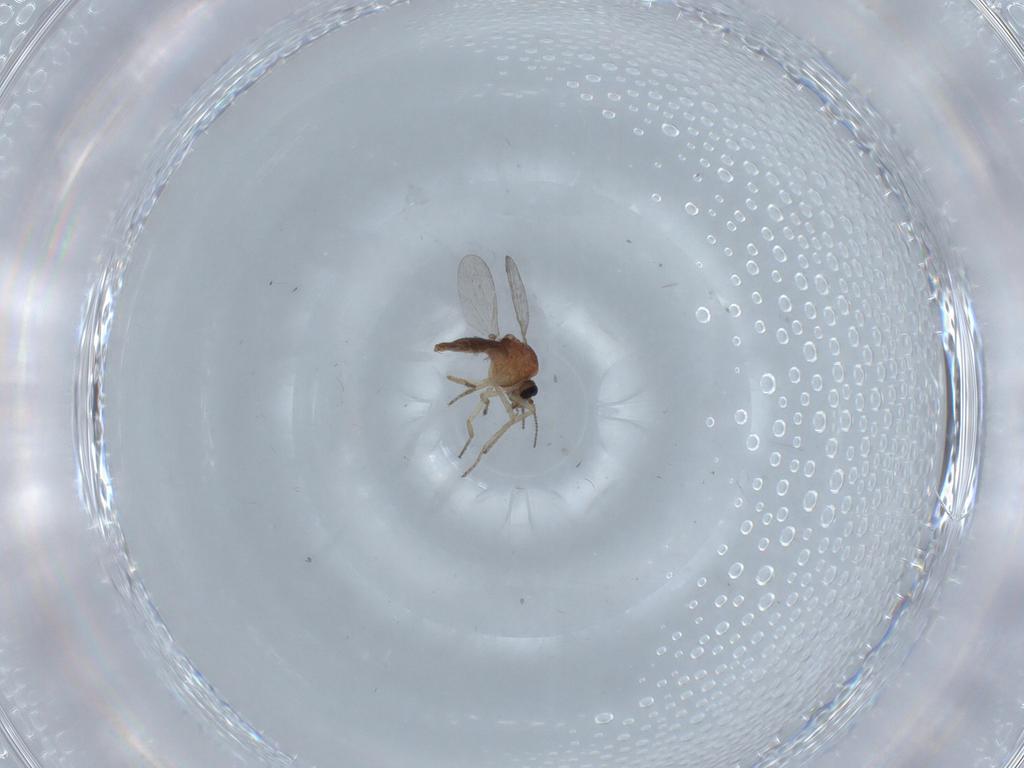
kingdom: Animalia
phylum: Arthropoda
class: Insecta
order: Diptera
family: Ceratopogonidae
